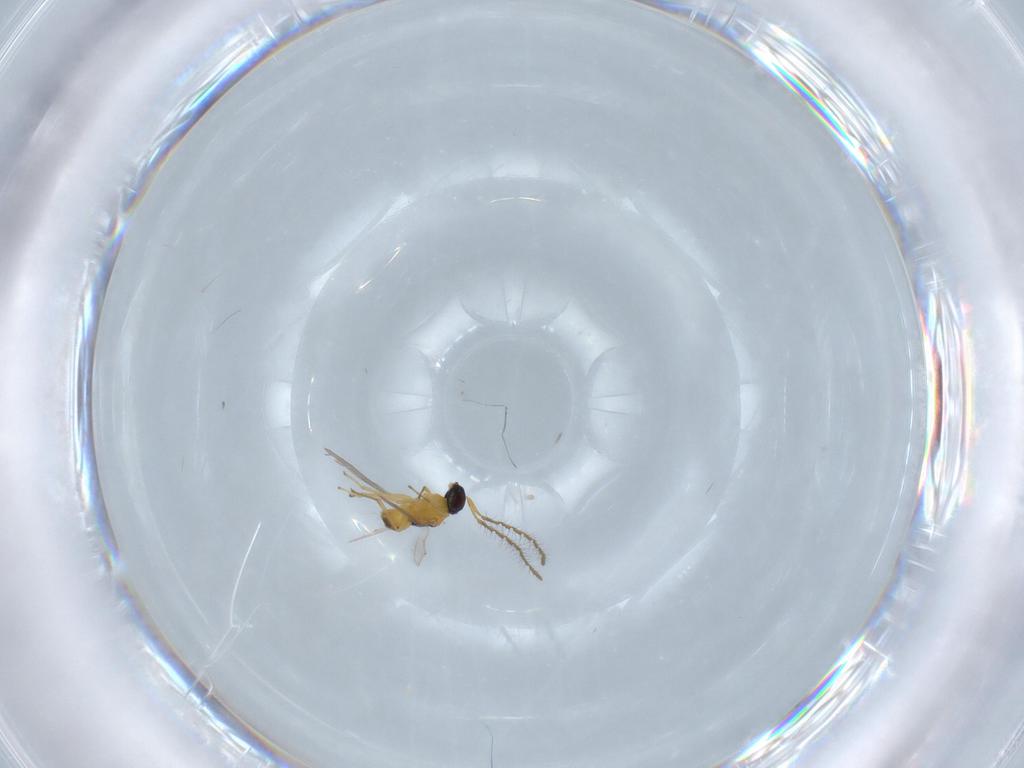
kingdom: Animalia
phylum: Arthropoda
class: Insecta
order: Hymenoptera
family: Encyrtidae
